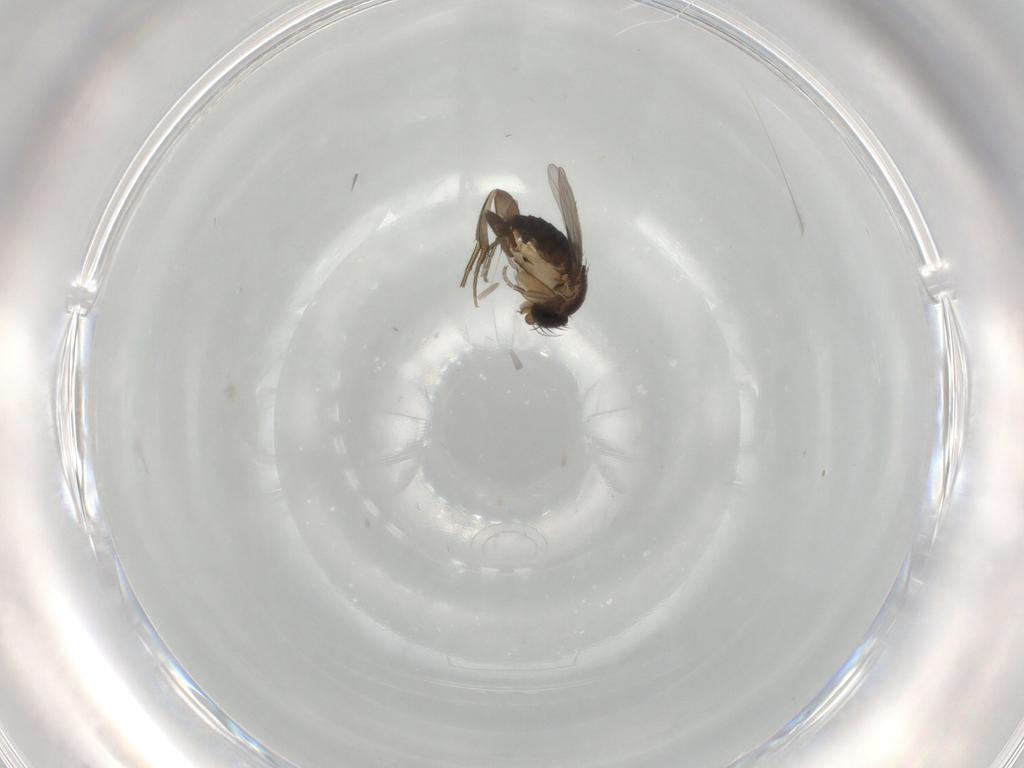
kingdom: Animalia
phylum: Arthropoda
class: Insecta
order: Diptera
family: Phoridae
